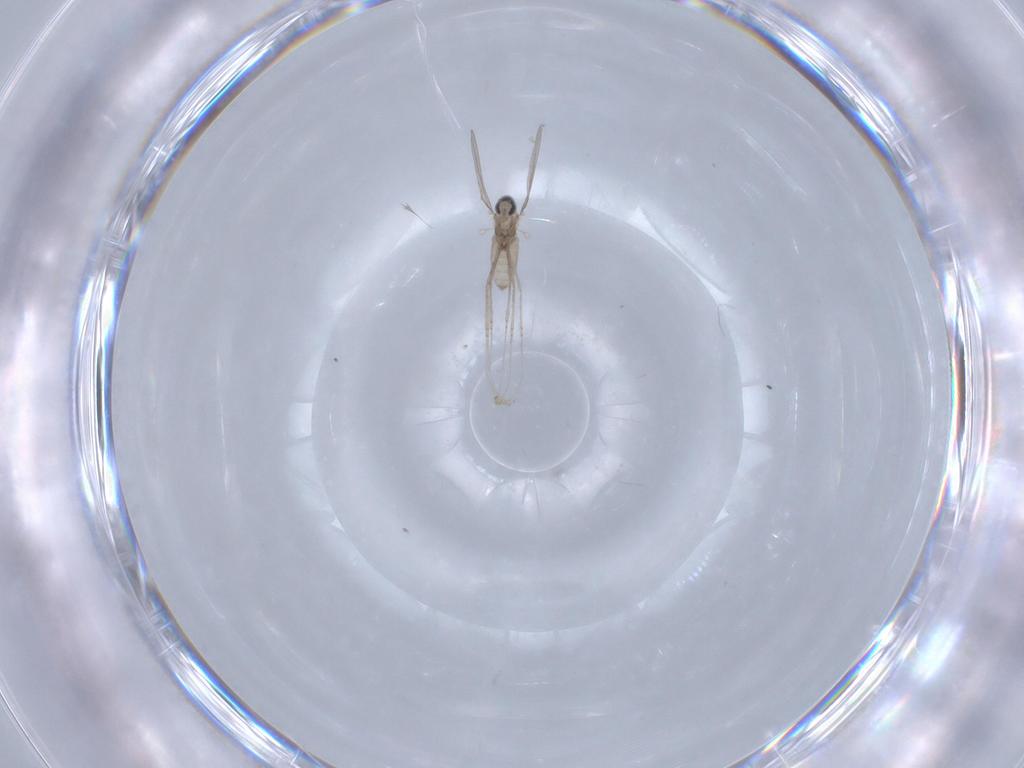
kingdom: Animalia
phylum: Arthropoda
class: Insecta
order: Diptera
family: Cecidomyiidae
